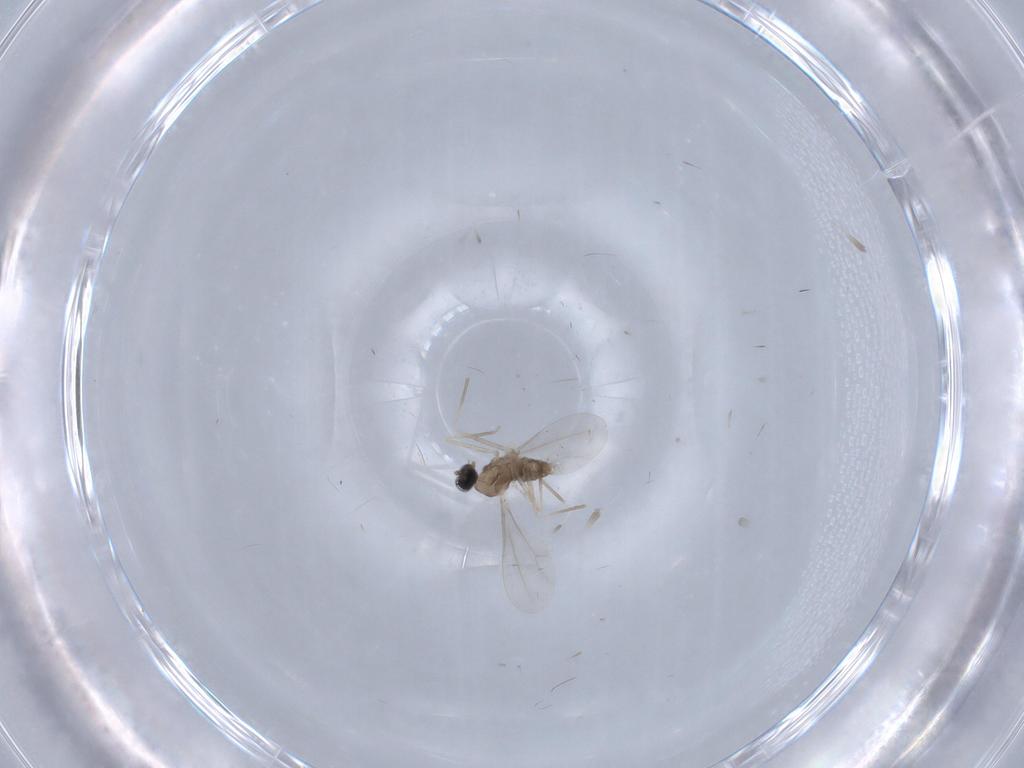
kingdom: Animalia
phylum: Arthropoda
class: Insecta
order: Diptera
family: Cecidomyiidae
